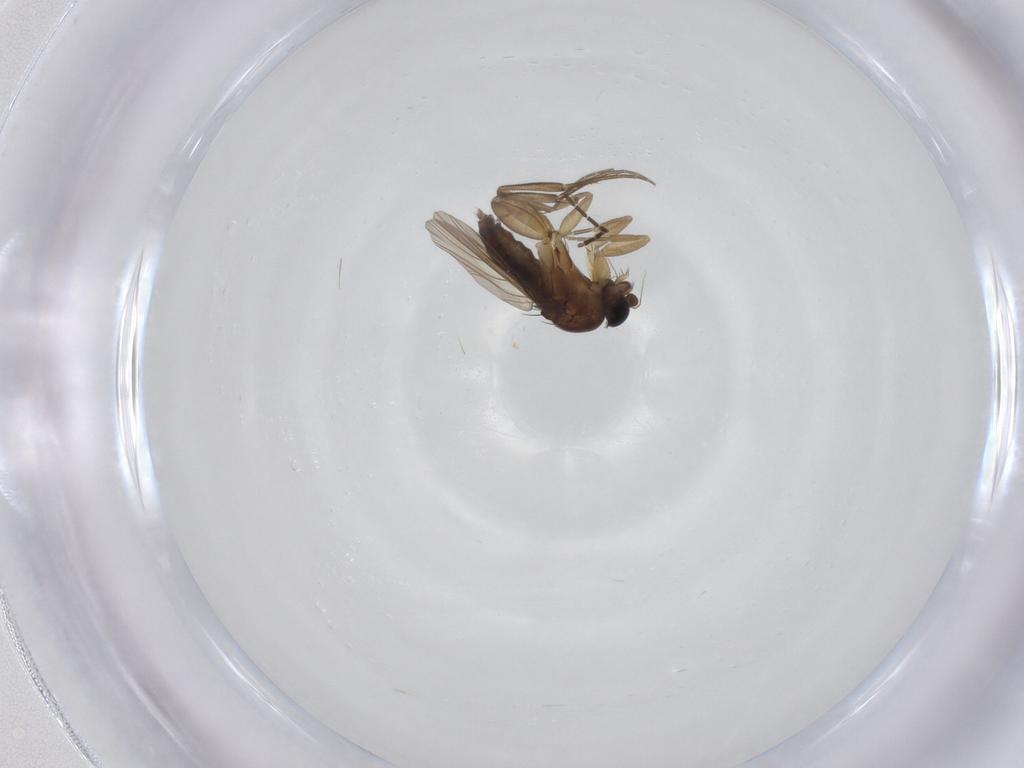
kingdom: Animalia
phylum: Arthropoda
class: Insecta
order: Diptera
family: Phoridae
